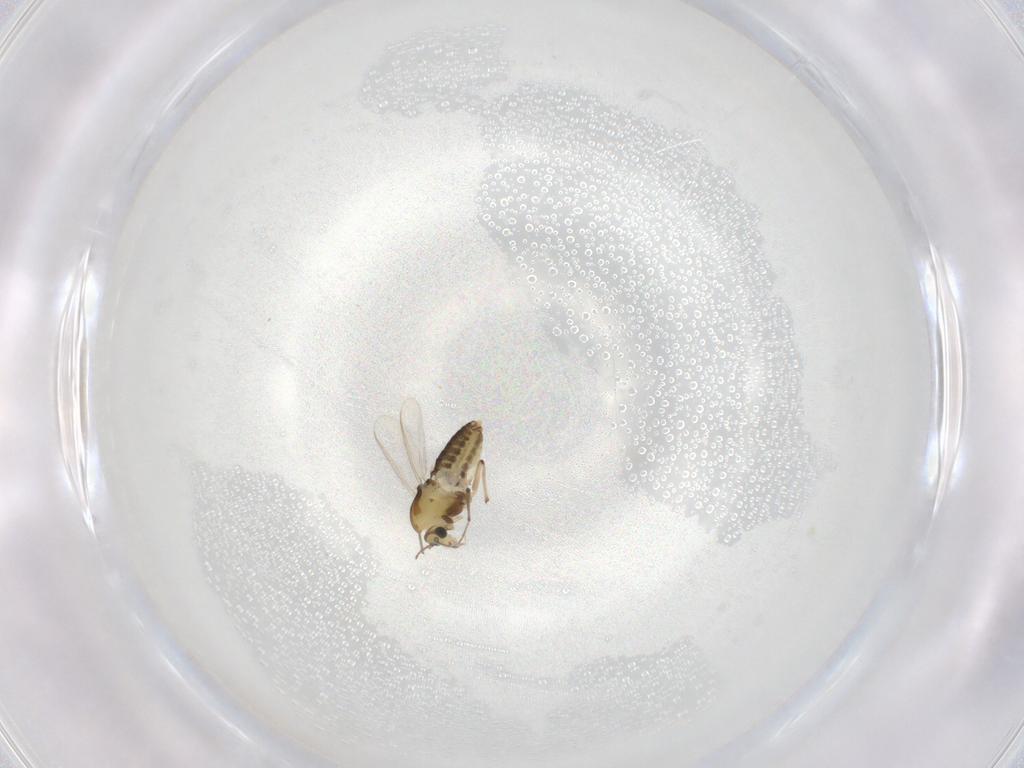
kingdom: Animalia
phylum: Arthropoda
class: Insecta
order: Diptera
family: Chironomidae
